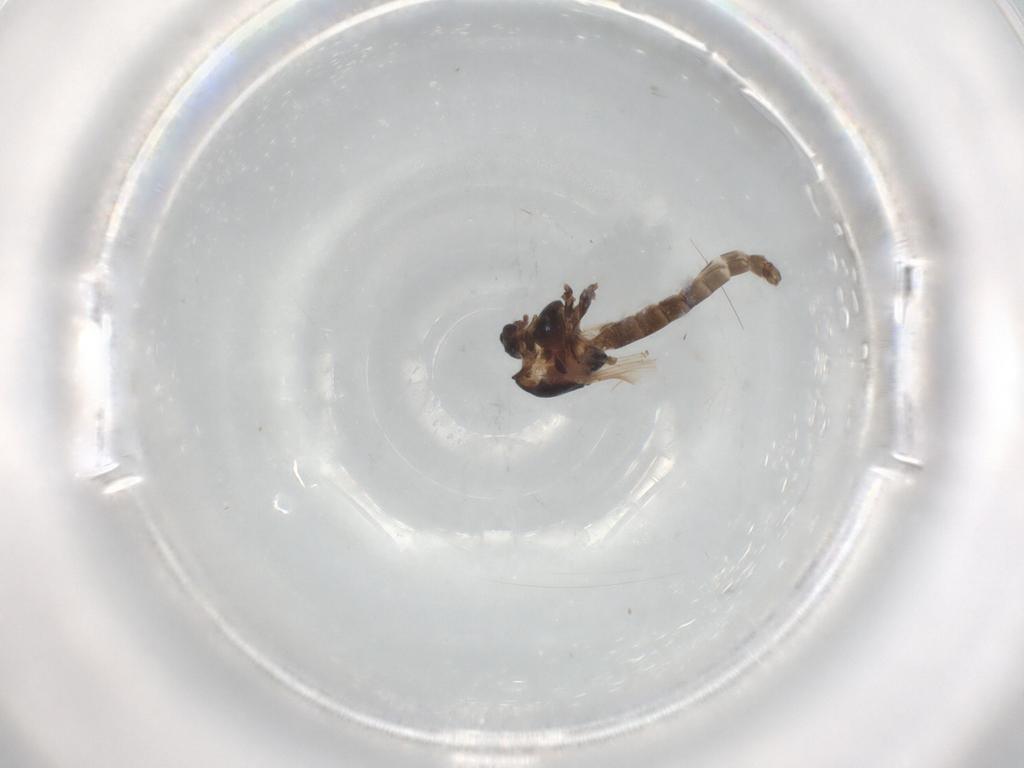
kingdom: Animalia
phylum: Arthropoda
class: Insecta
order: Diptera
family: Chironomidae
